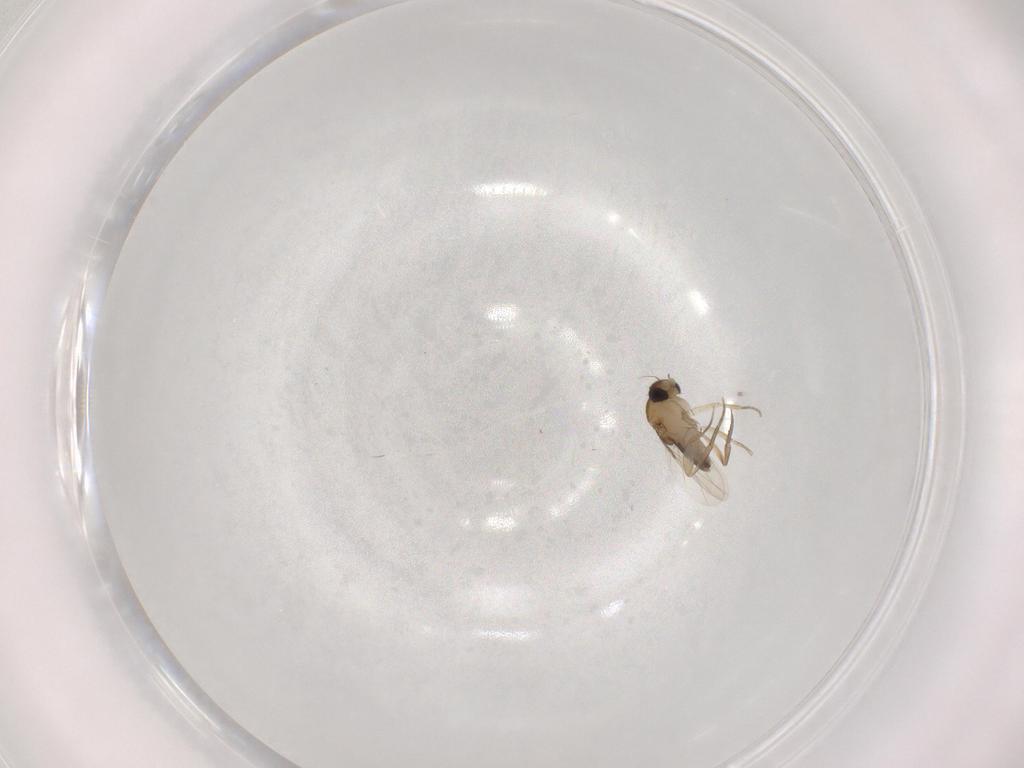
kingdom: Animalia
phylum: Arthropoda
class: Insecta
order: Diptera
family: Phoridae
